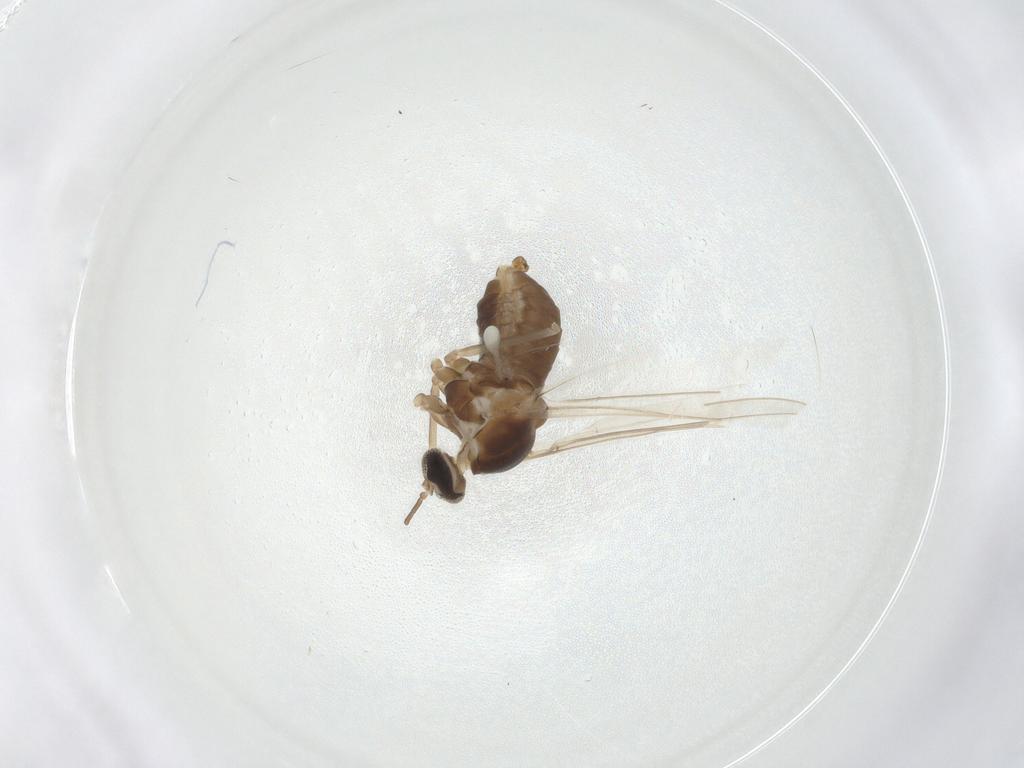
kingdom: Animalia
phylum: Arthropoda
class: Insecta
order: Diptera
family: Cecidomyiidae
